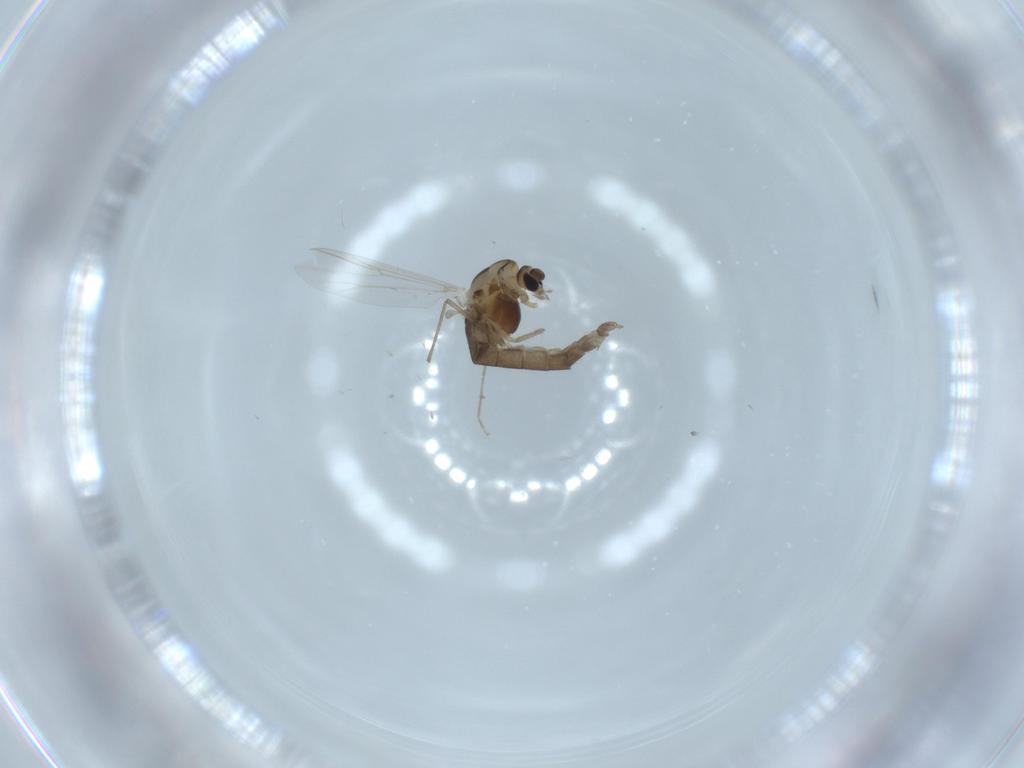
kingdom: Animalia
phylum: Arthropoda
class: Insecta
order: Diptera
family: Chironomidae
